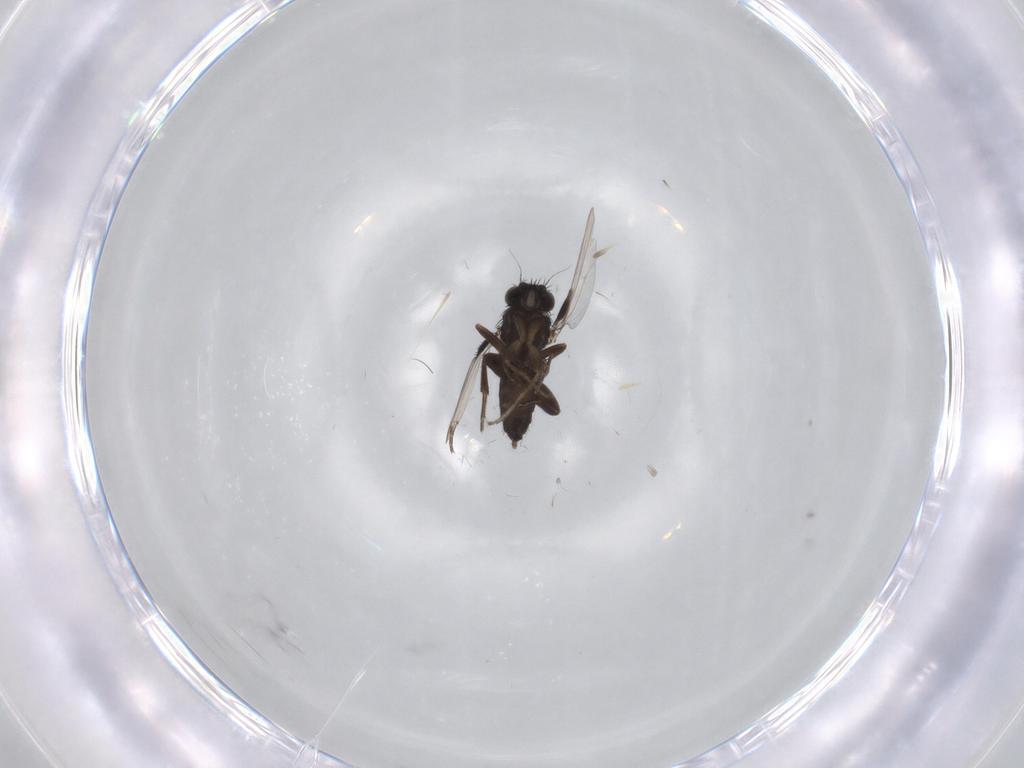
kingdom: Animalia
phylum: Arthropoda
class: Insecta
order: Diptera
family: Phoridae
